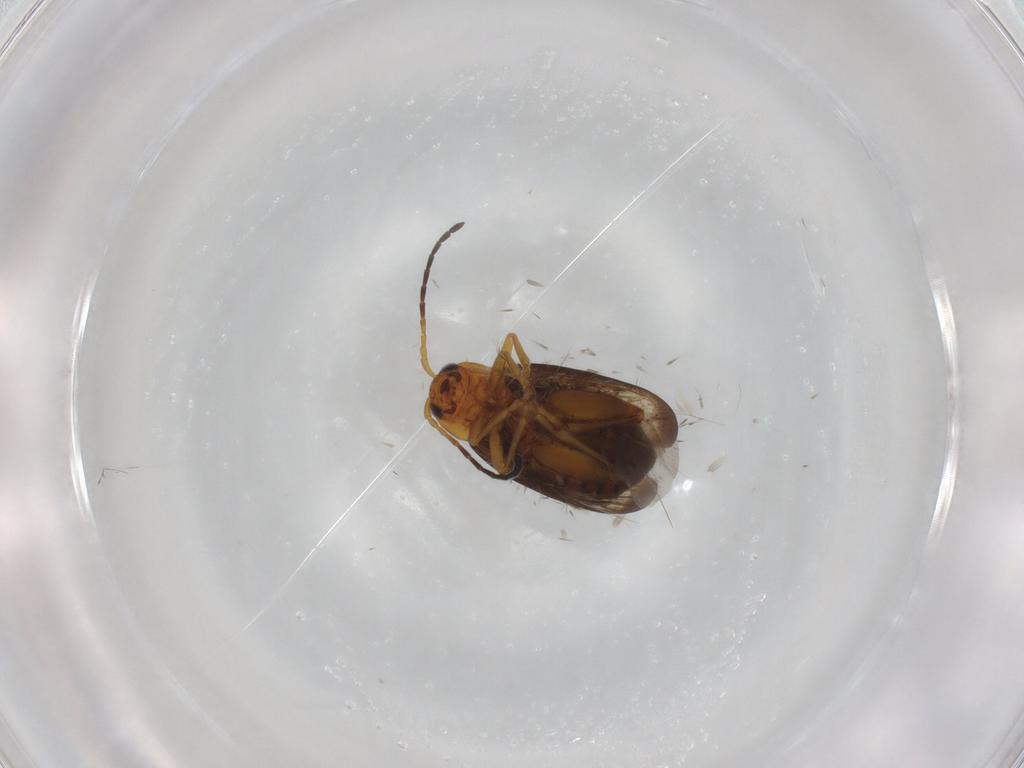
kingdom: Animalia
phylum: Arthropoda
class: Insecta
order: Coleoptera
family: Chrysomelidae
